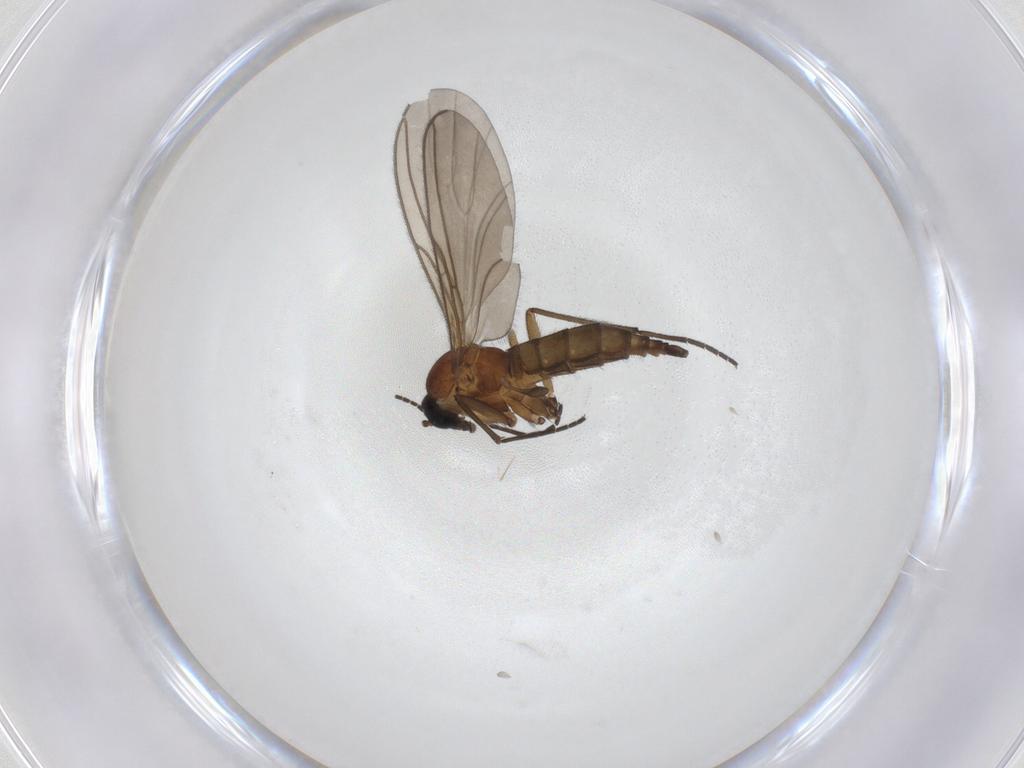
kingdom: Animalia
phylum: Arthropoda
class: Insecta
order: Diptera
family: Sciaridae
